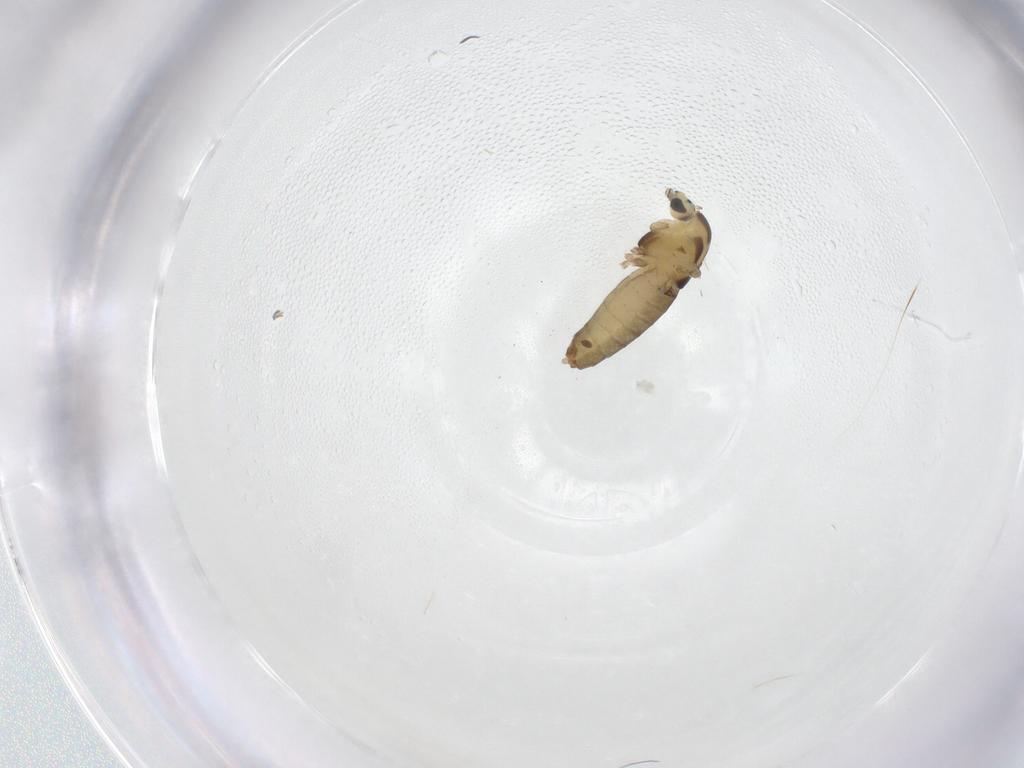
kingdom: Animalia
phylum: Arthropoda
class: Insecta
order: Diptera
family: Chironomidae
